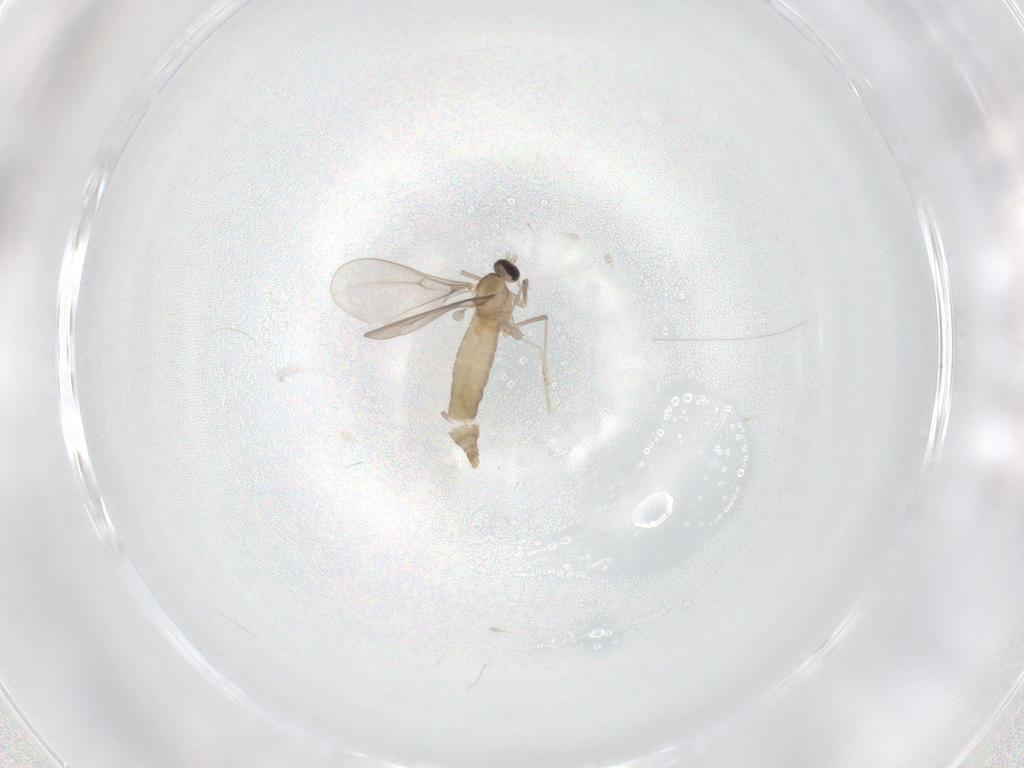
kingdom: Animalia
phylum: Arthropoda
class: Insecta
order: Diptera
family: Cecidomyiidae
